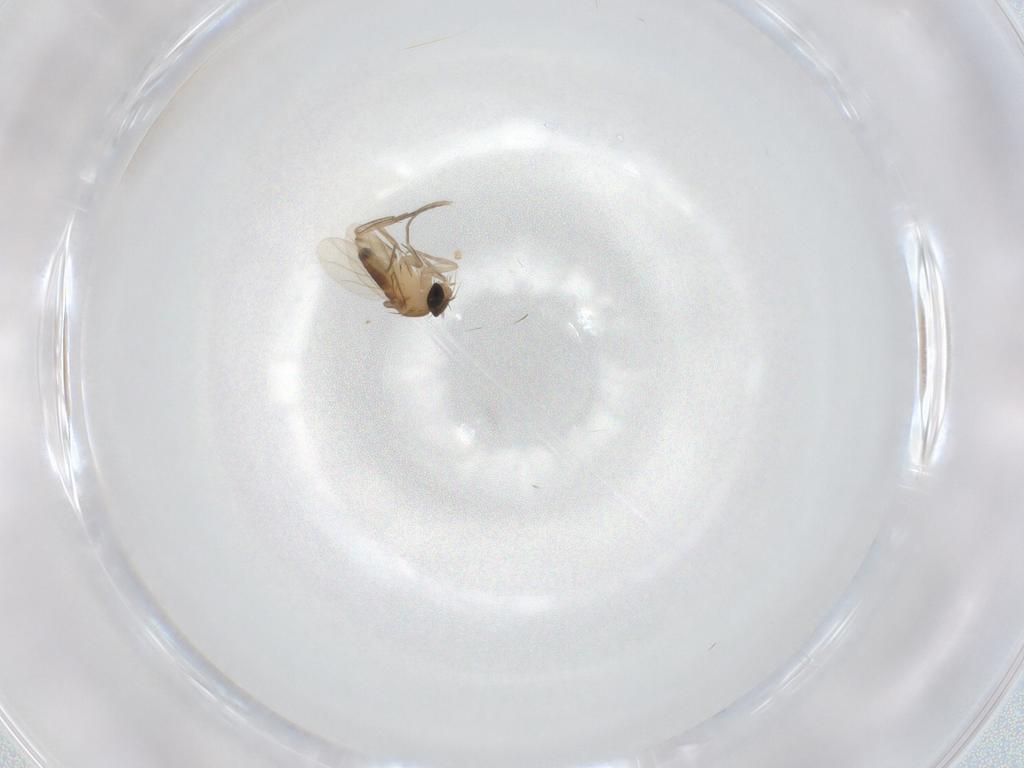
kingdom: Animalia
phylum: Arthropoda
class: Insecta
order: Diptera
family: Phoridae
